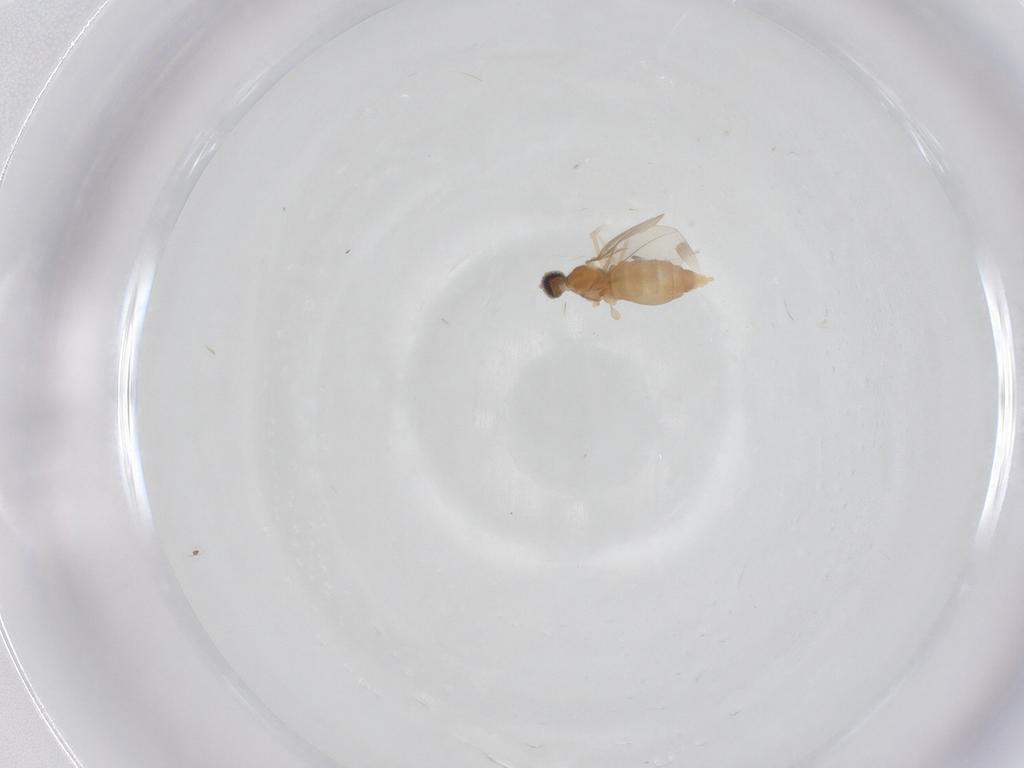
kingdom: Animalia
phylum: Arthropoda
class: Insecta
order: Diptera
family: Cecidomyiidae
